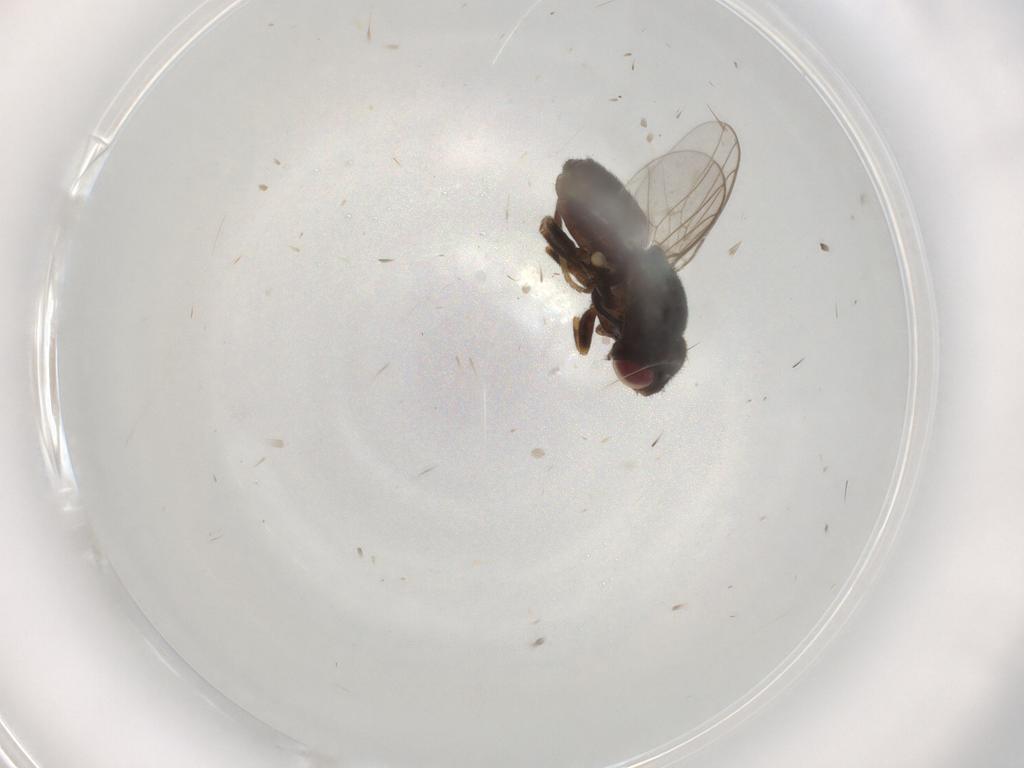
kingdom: Animalia
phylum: Arthropoda
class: Insecta
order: Diptera
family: Chloropidae
